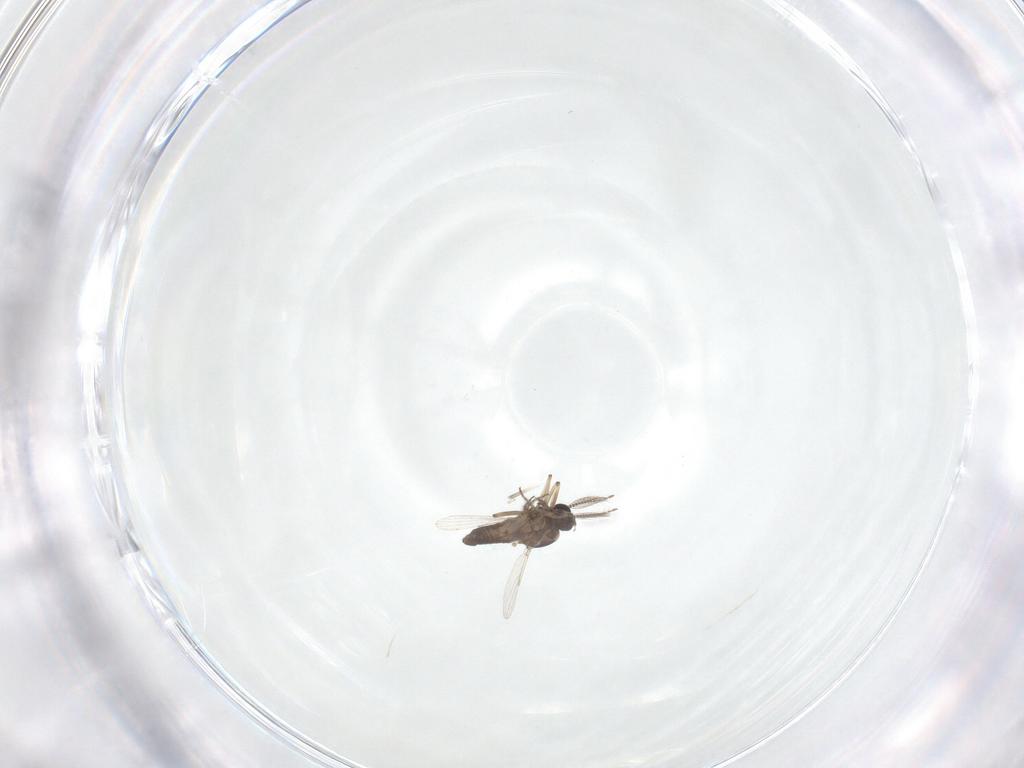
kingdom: Animalia
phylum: Arthropoda
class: Insecta
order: Diptera
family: Ceratopogonidae
